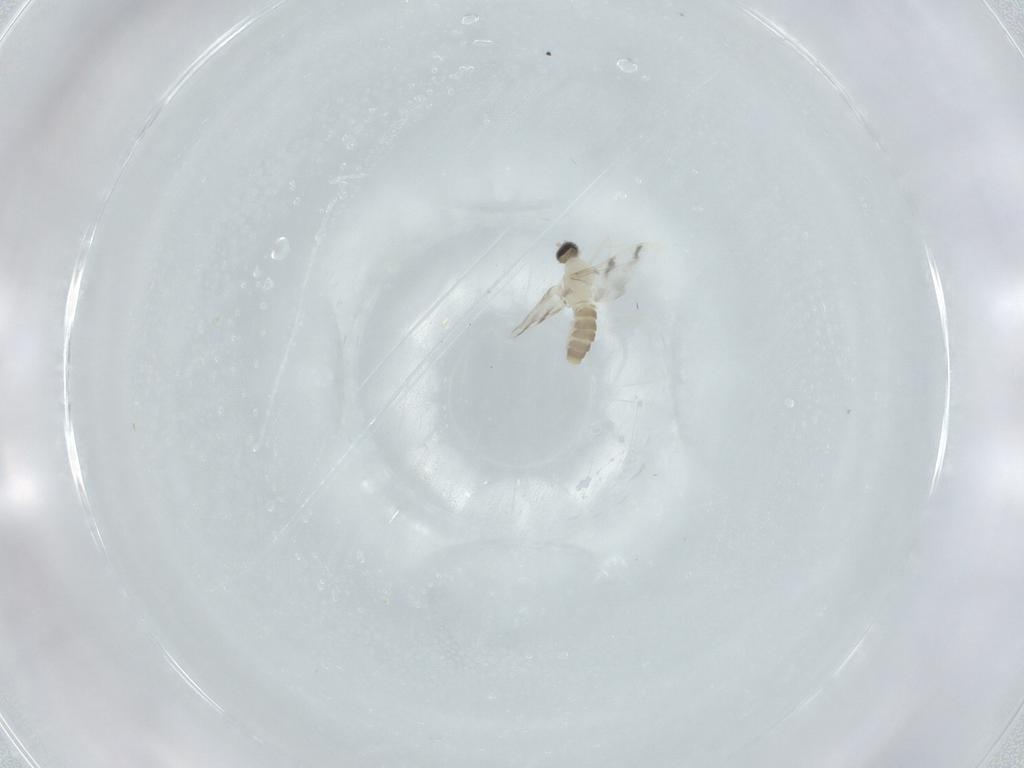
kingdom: Animalia
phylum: Arthropoda
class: Insecta
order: Diptera
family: Cecidomyiidae
